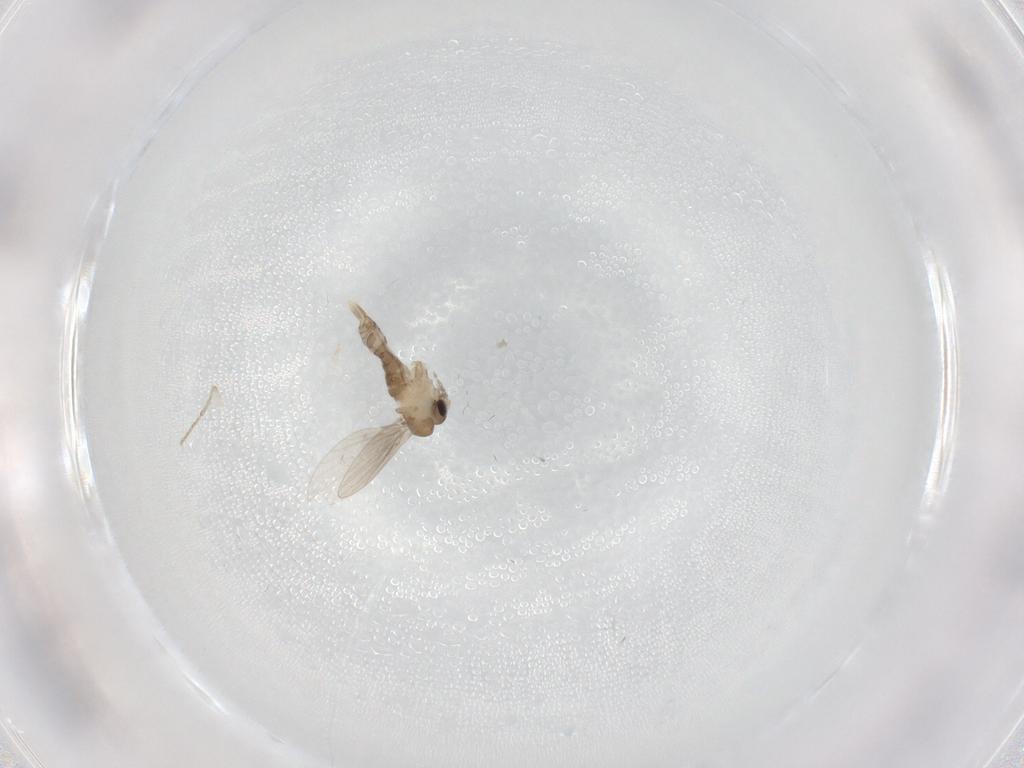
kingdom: Animalia
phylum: Arthropoda
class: Insecta
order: Diptera
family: Psychodidae
